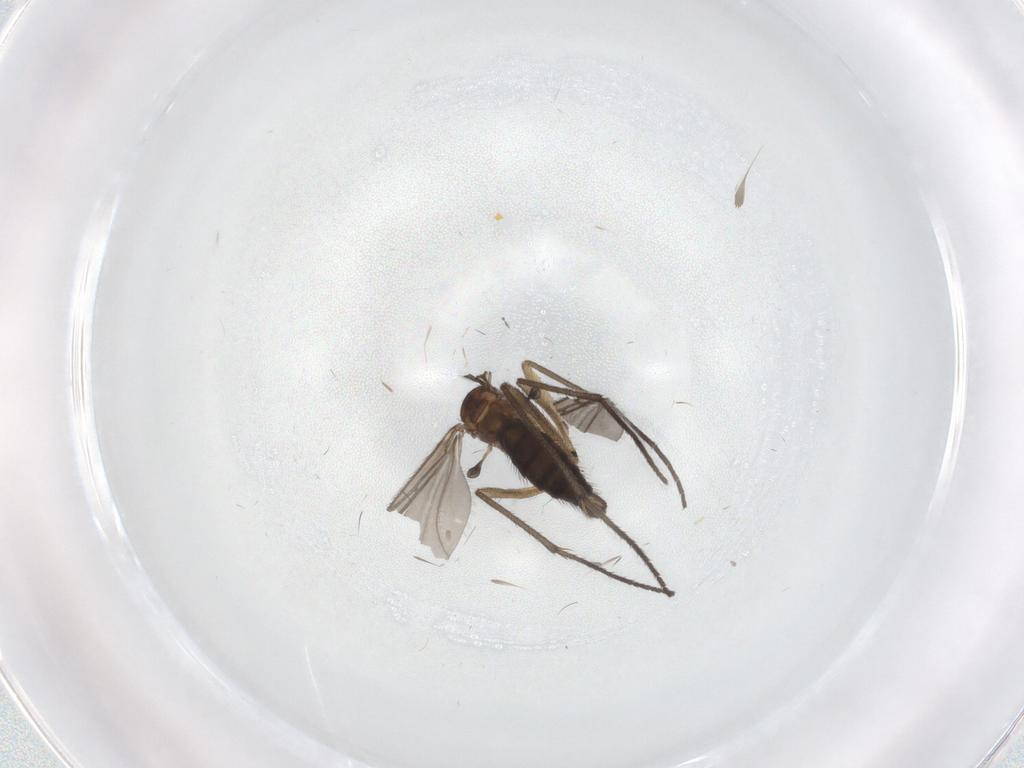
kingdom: Animalia
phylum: Arthropoda
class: Insecta
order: Diptera
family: Sciaridae
